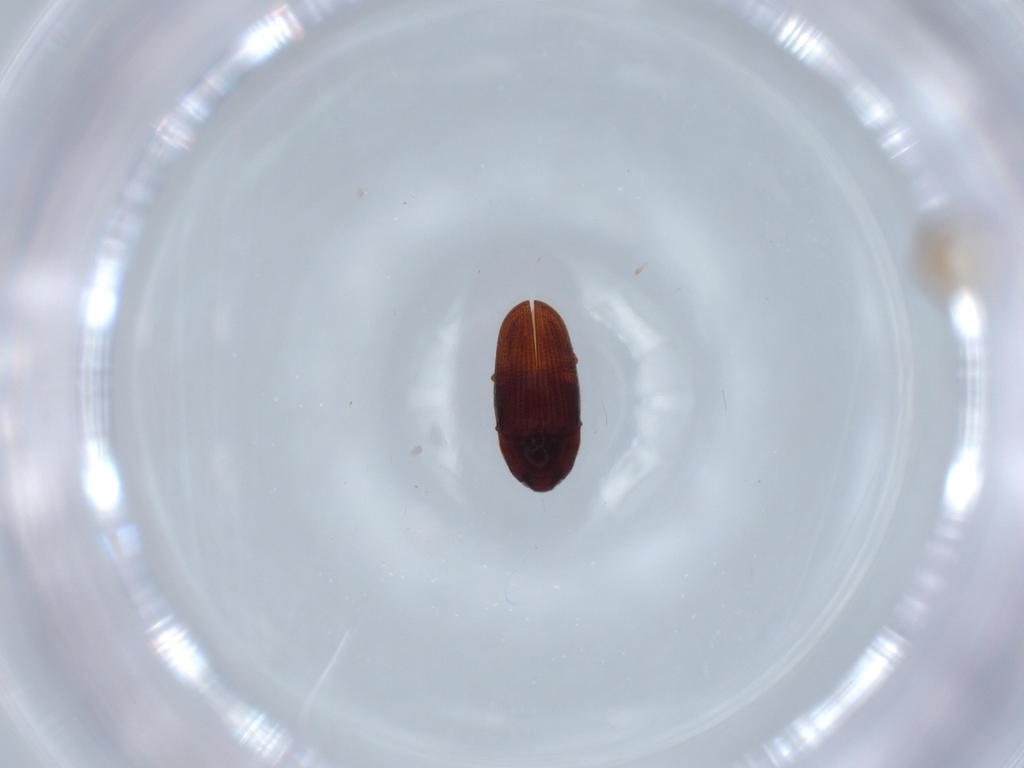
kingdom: Animalia
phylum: Arthropoda
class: Insecta
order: Coleoptera
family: Throscidae
